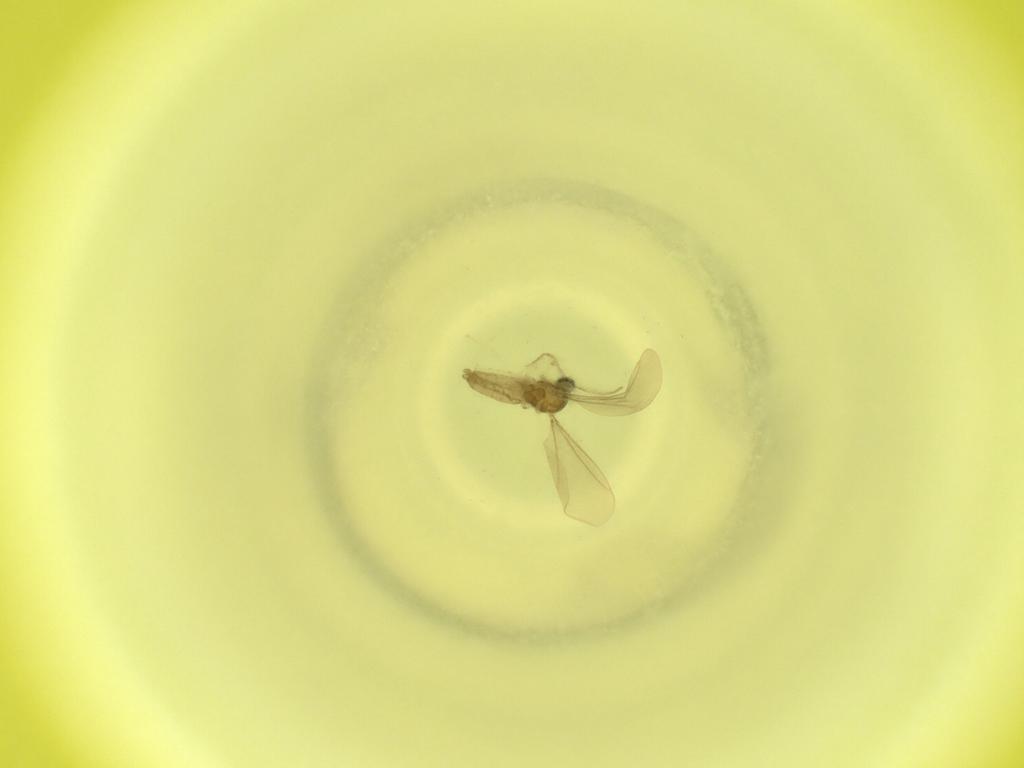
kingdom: Animalia
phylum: Arthropoda
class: Insecta
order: Diptera
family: Cecidomyiidae
